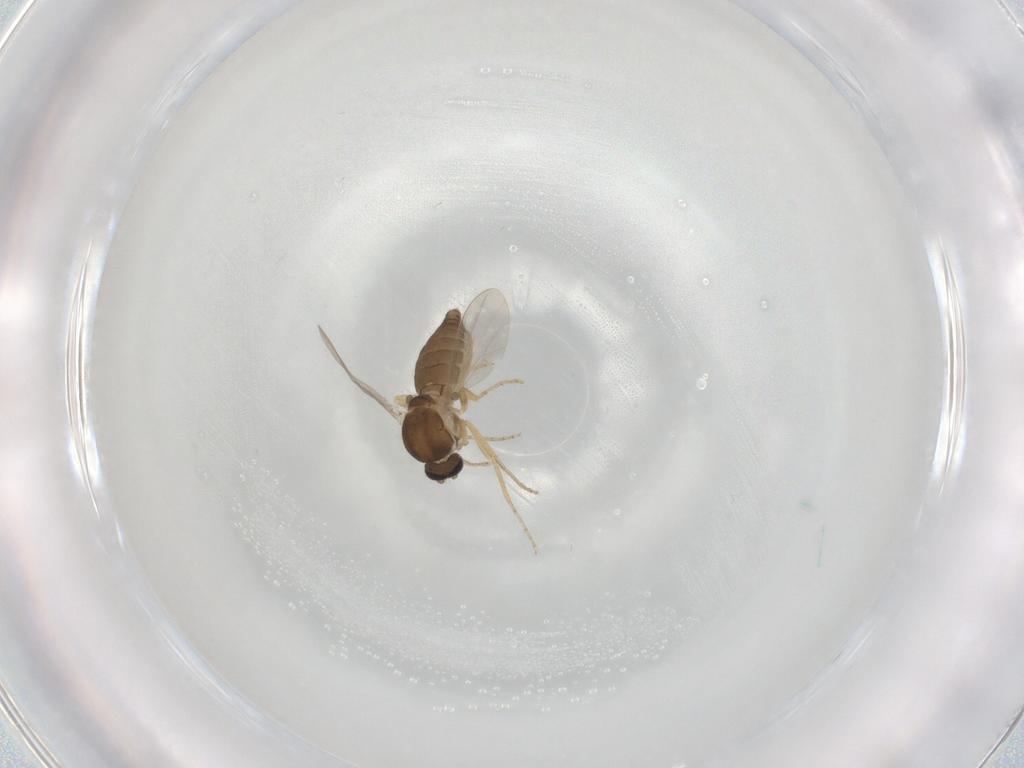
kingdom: Animalia
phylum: Arthropoda
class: Insecta
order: Diptera
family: Ceratopogonidae
